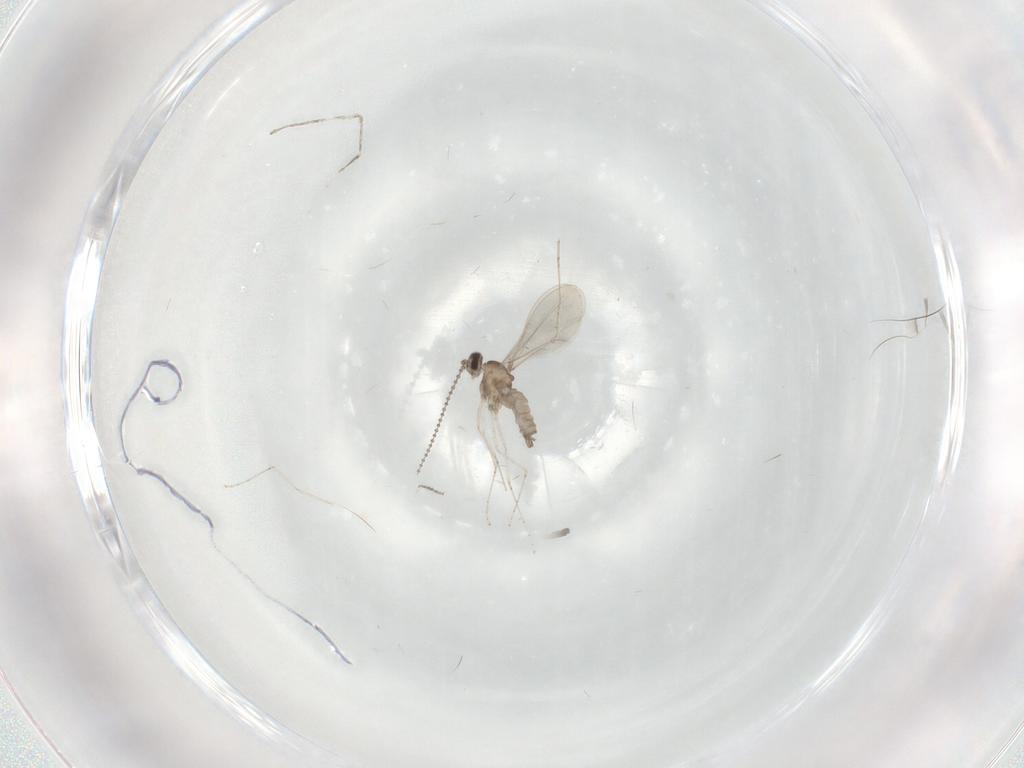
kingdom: Animalia
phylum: Arthropoda
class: Insecta
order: Diptera
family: Cecidomyiidae
